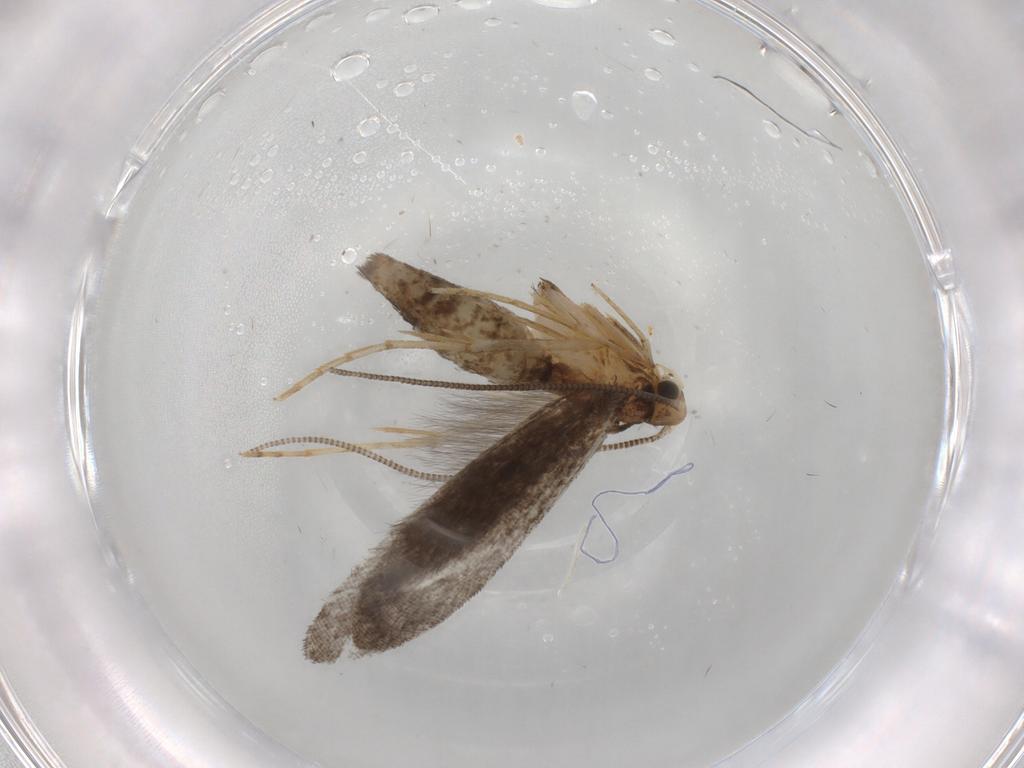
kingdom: Animalia
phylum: Arthropoda
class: Insecta
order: Lepidoptera
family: Tineidae
